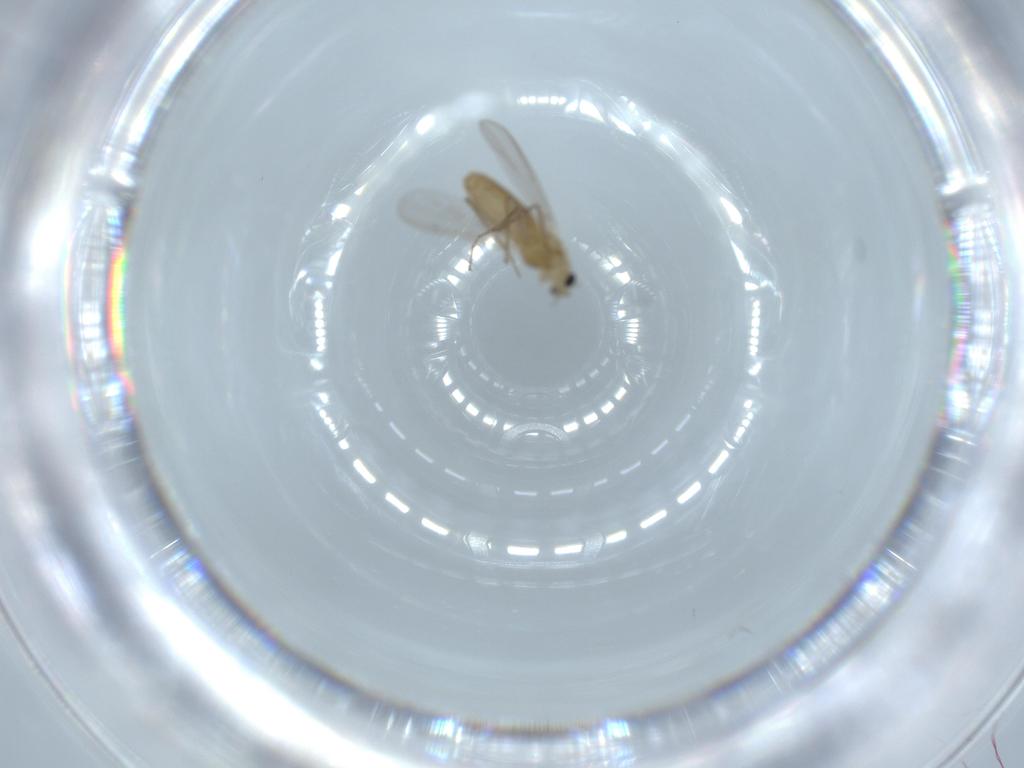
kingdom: Animalia
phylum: Arthropoda
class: Insecta
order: Diptera
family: Chironomidae
